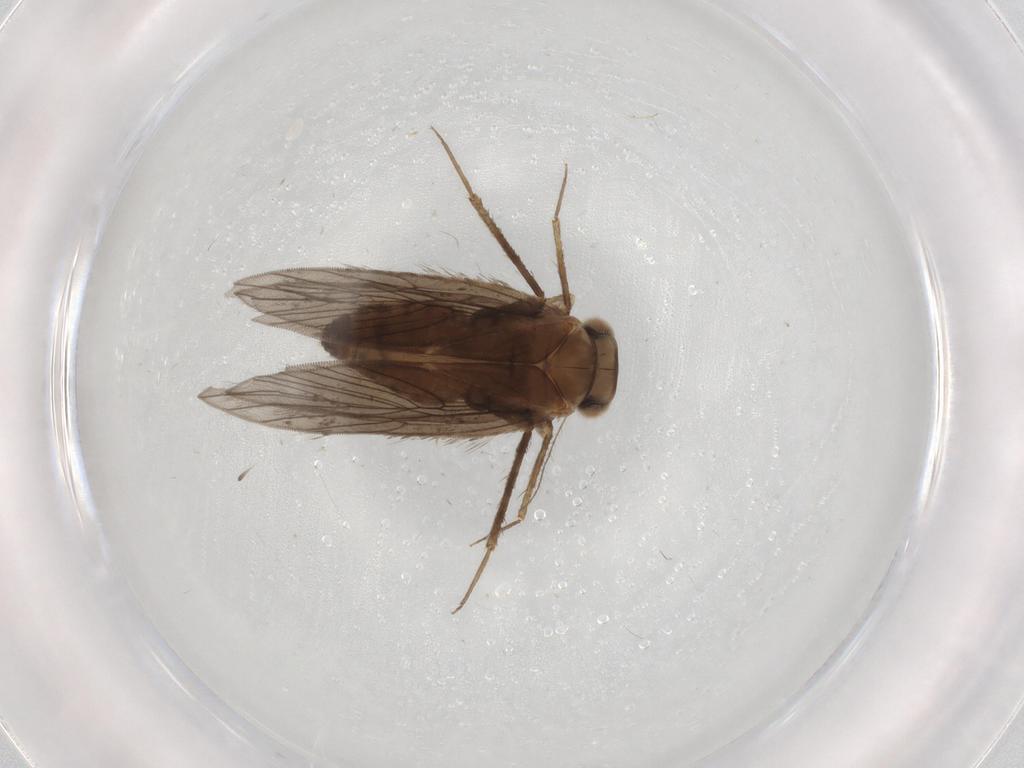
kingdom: Animalia
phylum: Arthropoda
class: Insecta
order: Psocodea
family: Lepidopsocidae
